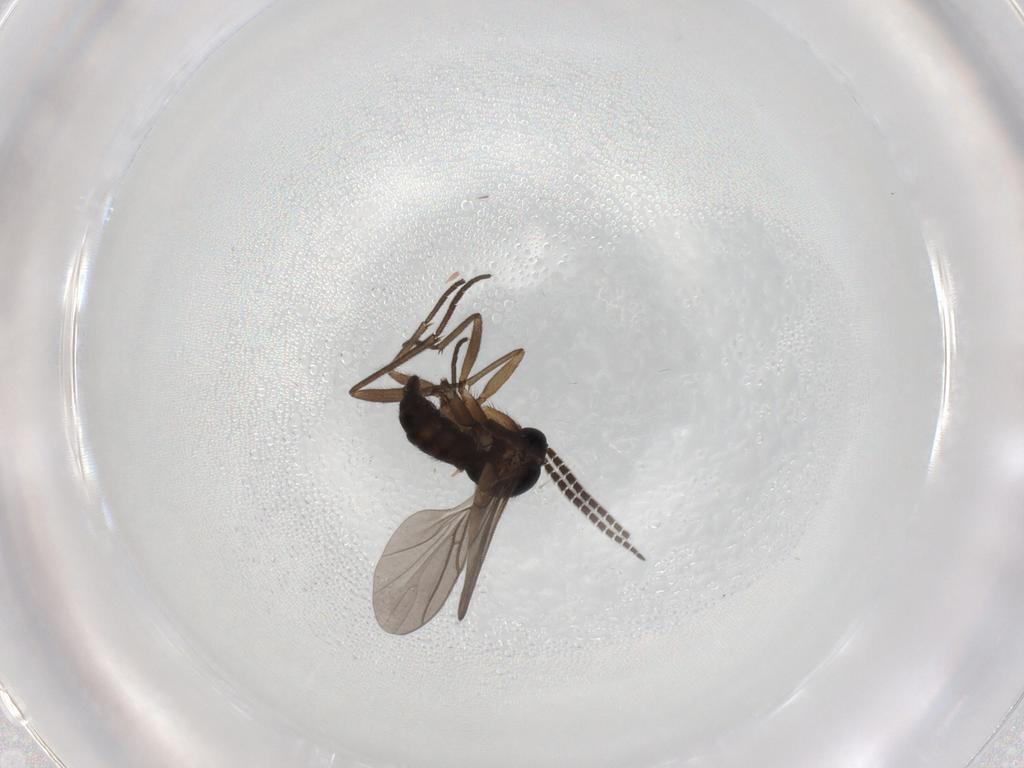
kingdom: Animalia
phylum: Arthropoda
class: Insecta
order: Diptera
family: Sciaridae
